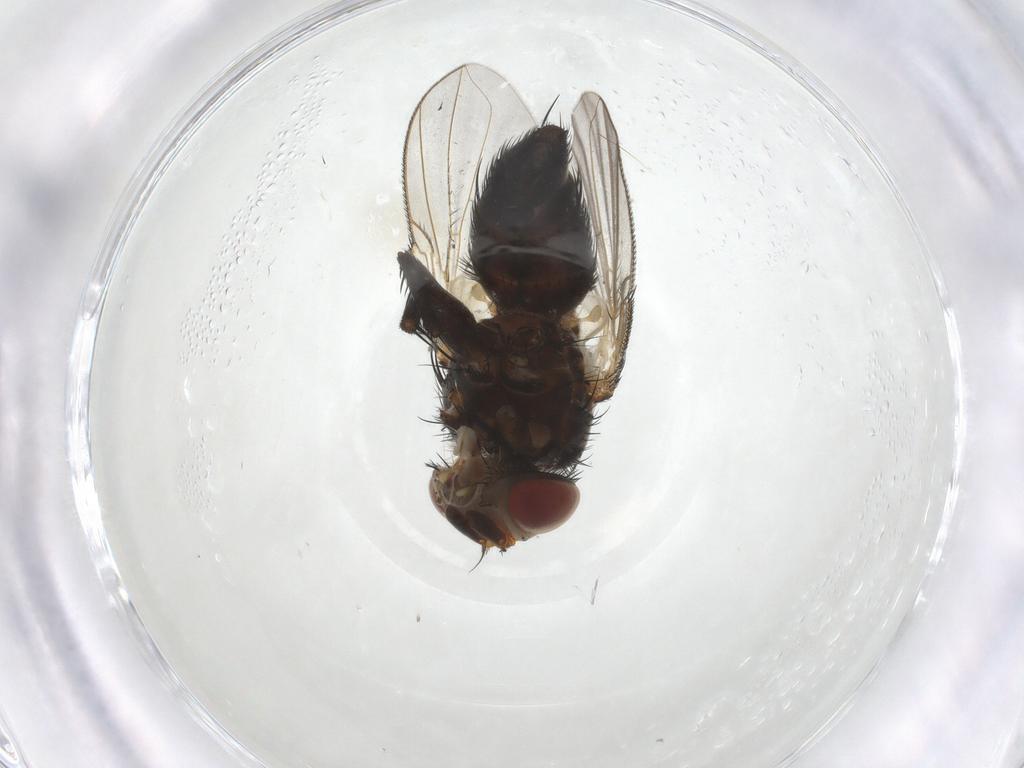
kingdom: Animalia
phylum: Arthropoda
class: Insecta
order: Diptera
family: Tachinidae
